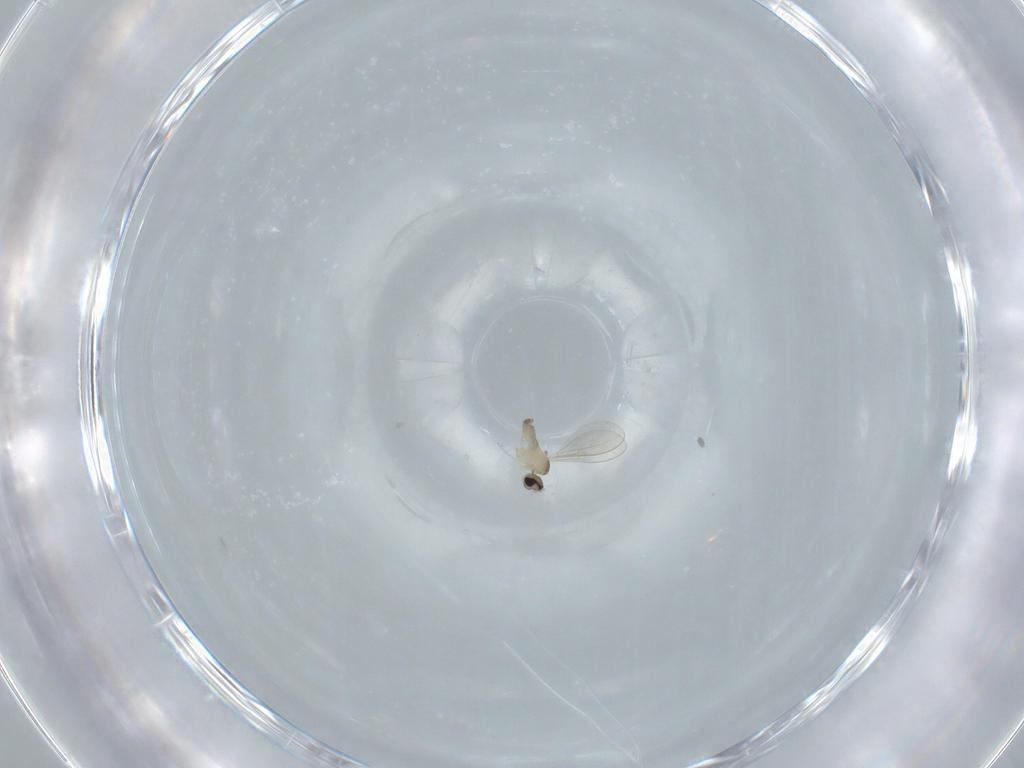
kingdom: Animalia
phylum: Arthropoda
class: Insecta
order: Diptera
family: Cecidomyiidae
